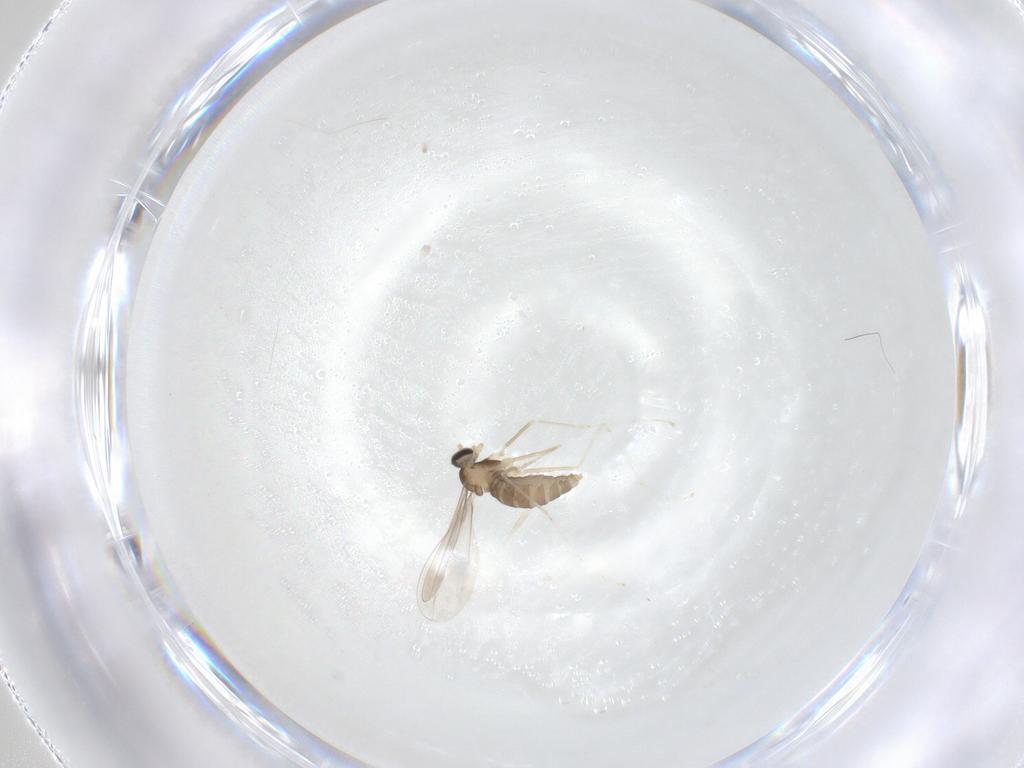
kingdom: Animalia
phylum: Arthropoda
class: Insecta
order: Diptera
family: Cecidomyiidae
